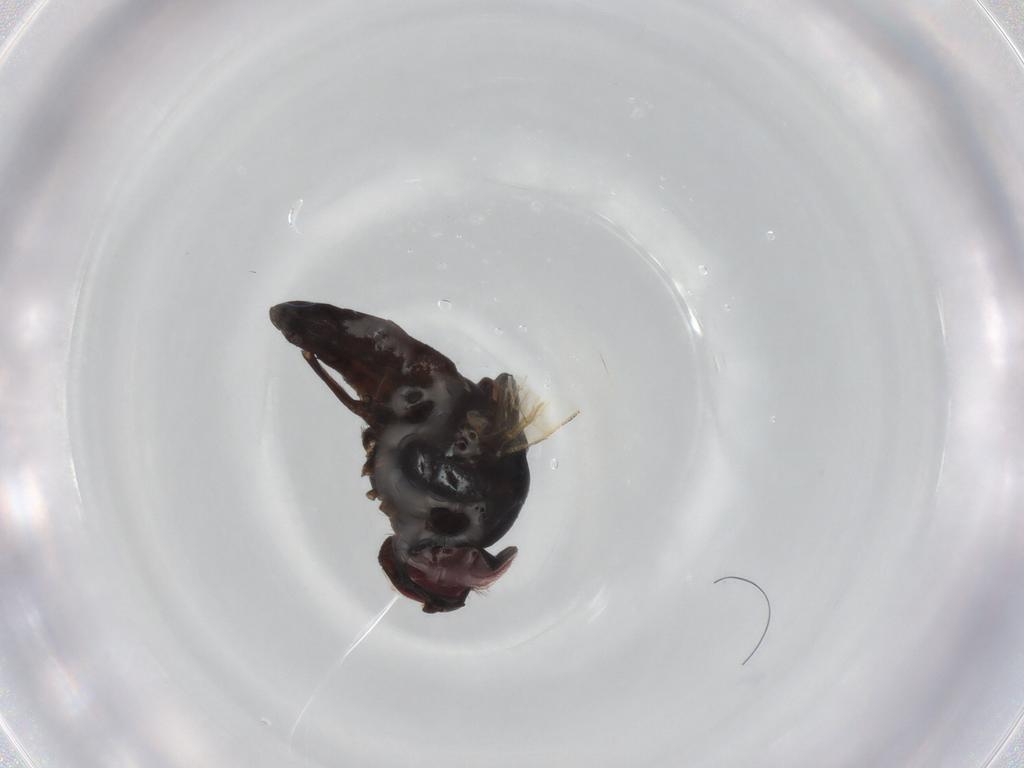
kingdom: Animalia
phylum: Arthropoda
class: Insecta
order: Diptera
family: Lonchaeidae
